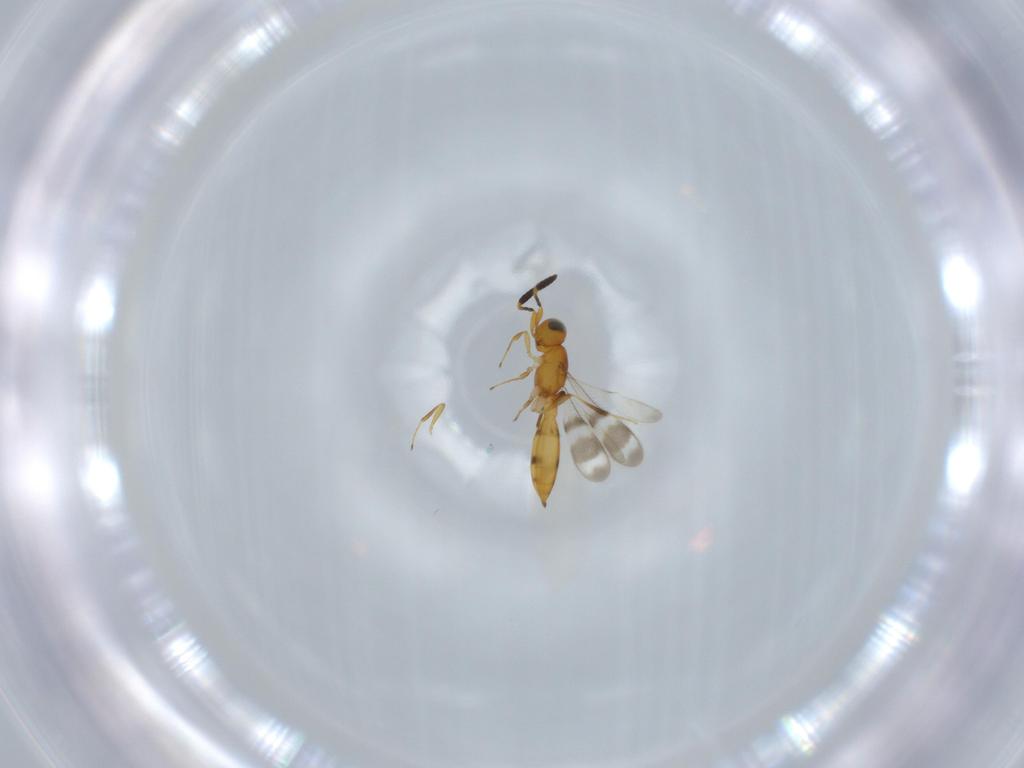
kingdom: Animalia
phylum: Arthropoda
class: Insecta
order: Hymenoptera
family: Scelionidae
